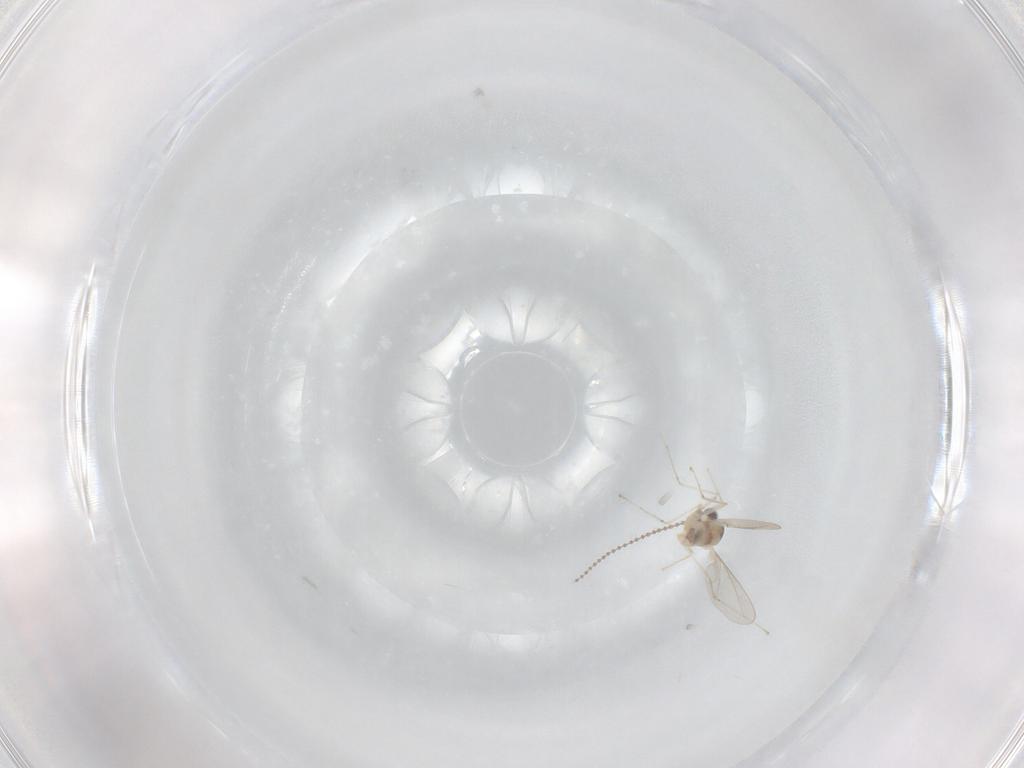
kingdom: Animalia
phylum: Arthropoda
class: Insecta
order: Diptera
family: Cecidomyiidae
